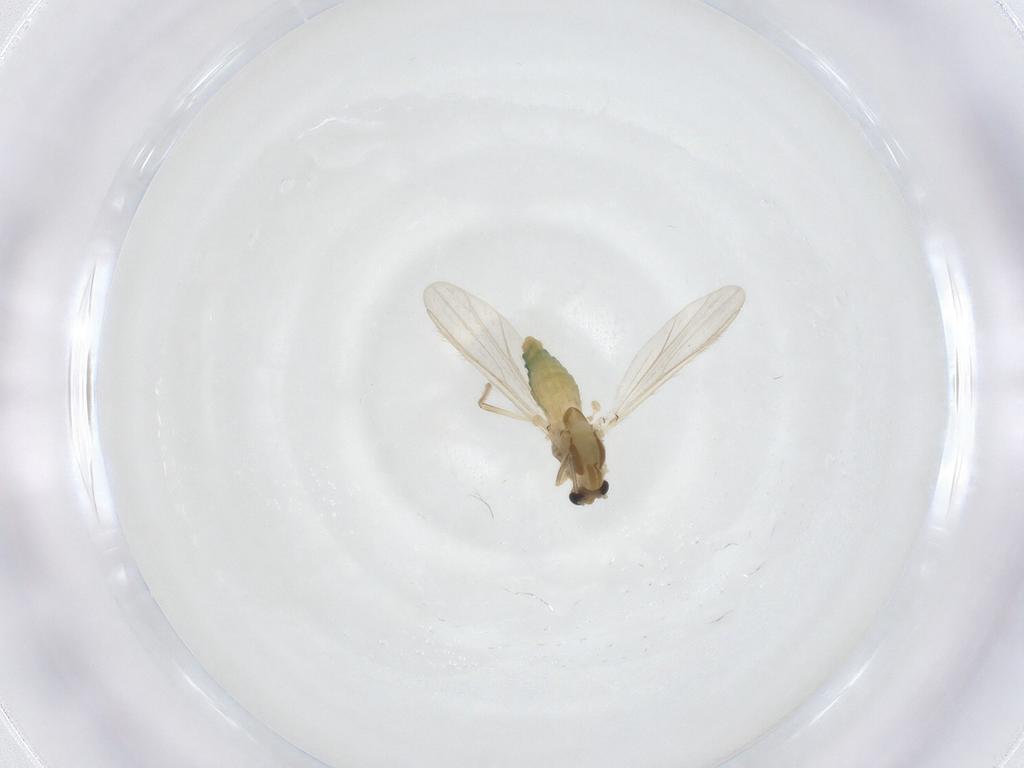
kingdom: Animalia
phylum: Arthropoda
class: Insecta
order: Diptera
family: Chironomidae
